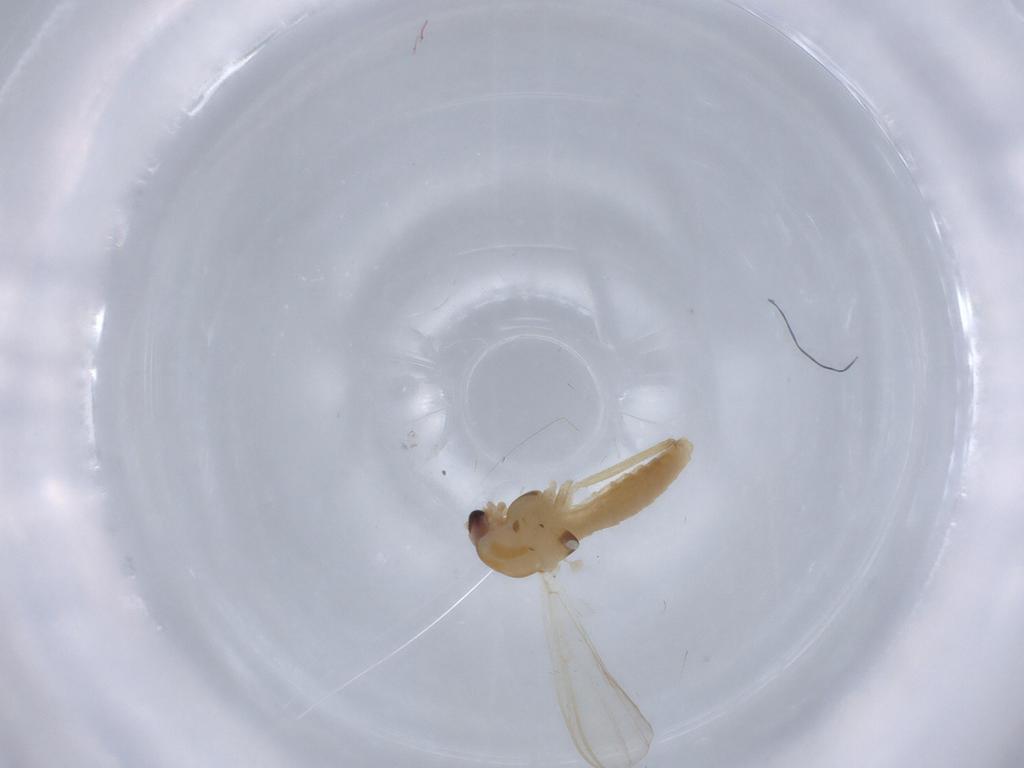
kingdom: Animalia
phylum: Arthropoda
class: Insecta
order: Diptera
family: Chironomidae
